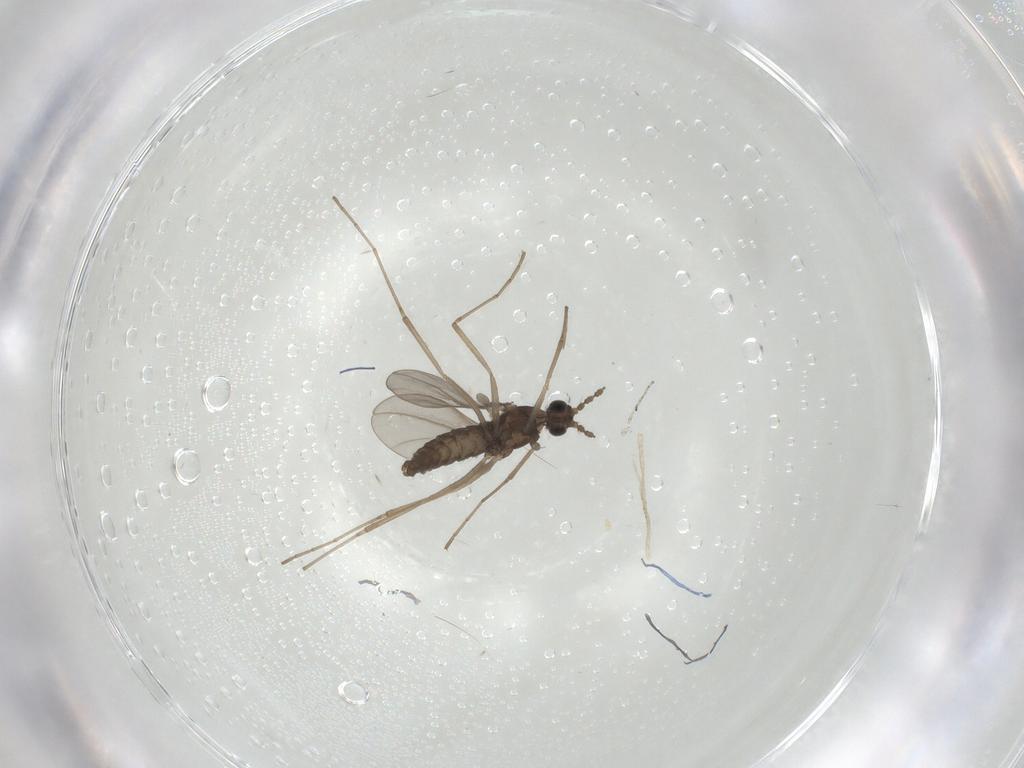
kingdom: Animalia
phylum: Arthropoda
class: Insecta
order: Diptera
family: Cecidomyiidae
